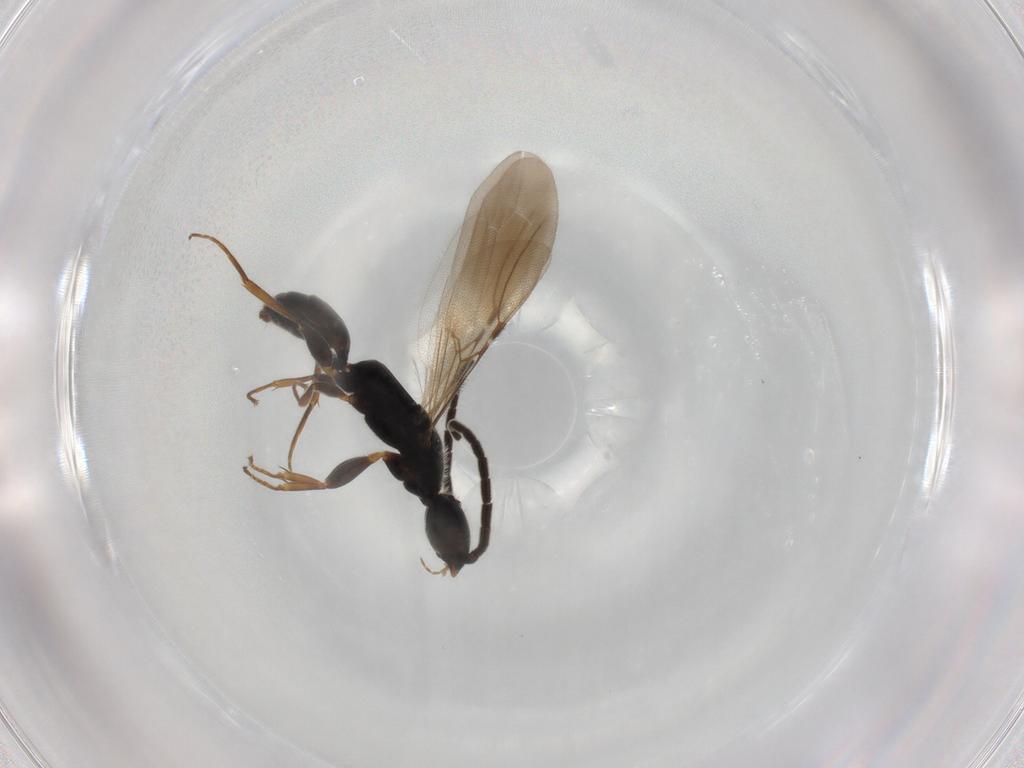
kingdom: Animalia
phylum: Arthropoda
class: Insecta
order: Hymenoptera
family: Bethylidae
